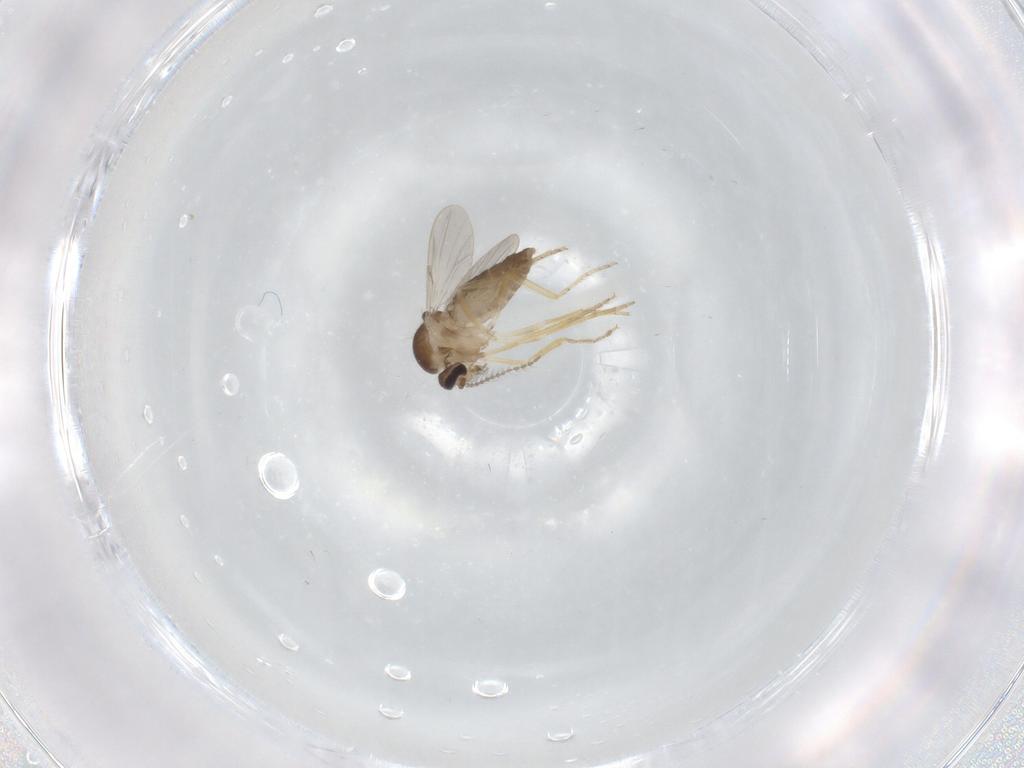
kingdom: Animalia
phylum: Arthropoda
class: Insecta
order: Diptera
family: Ceratopogonidae
